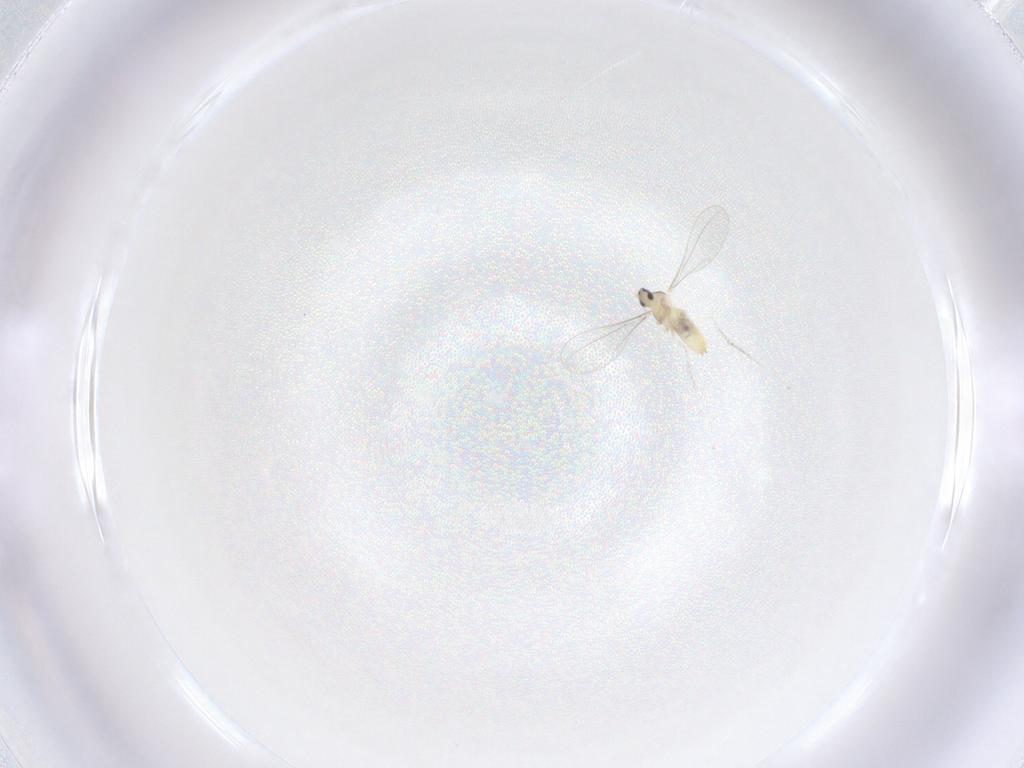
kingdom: Animalia
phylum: Arthropoda
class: Insecta
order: Diptera
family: Cecidomyiidae
